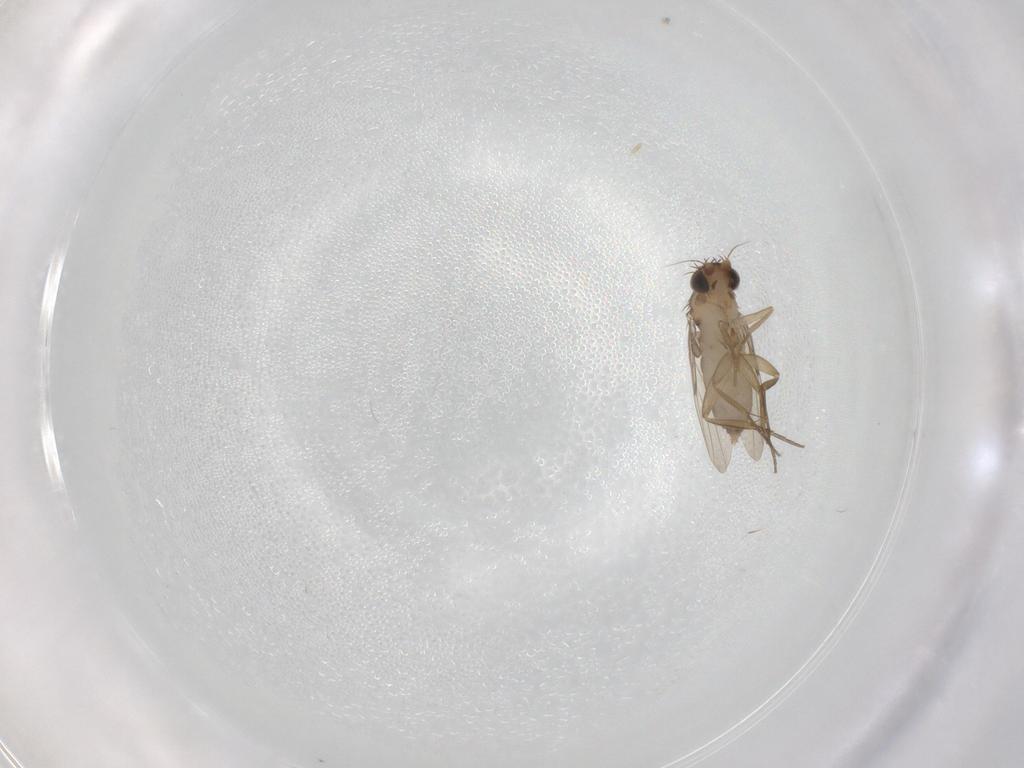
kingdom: Animalia
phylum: Arthropoda
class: Insecta
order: Diptera
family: Phoridae
